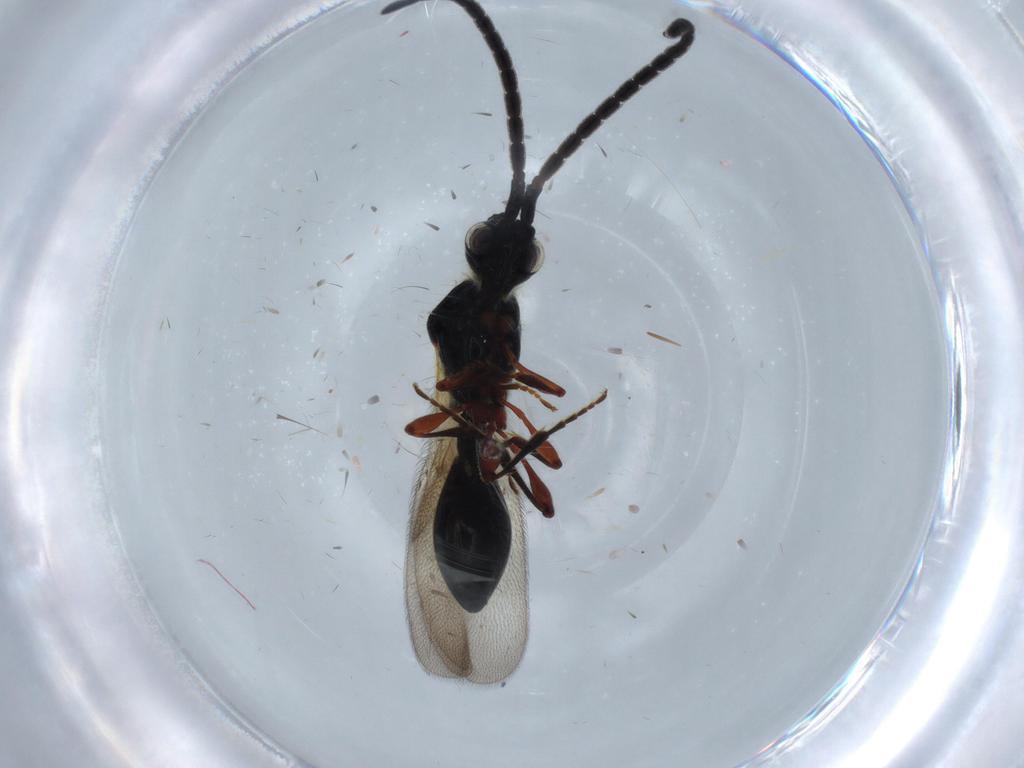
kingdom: Animalia
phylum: Arthropoda
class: Insecta
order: Hymenoptera
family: Diapriidae
